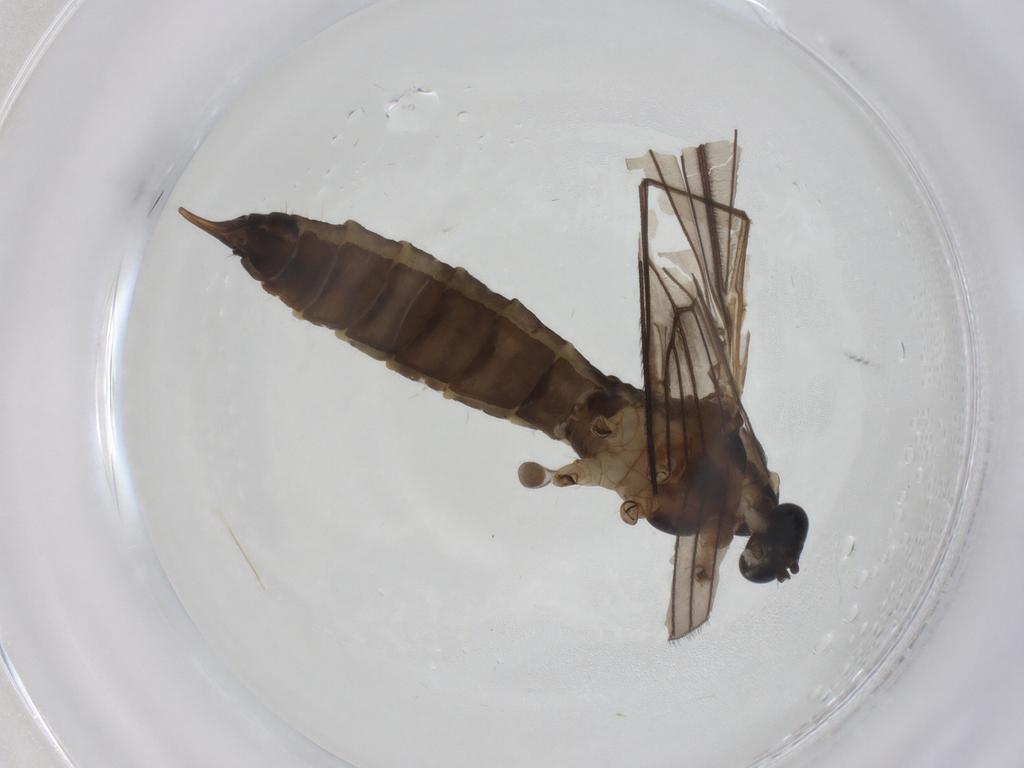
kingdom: Animalia
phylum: Arthropoda
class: Insecta
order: Diptera
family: Limoniidae
